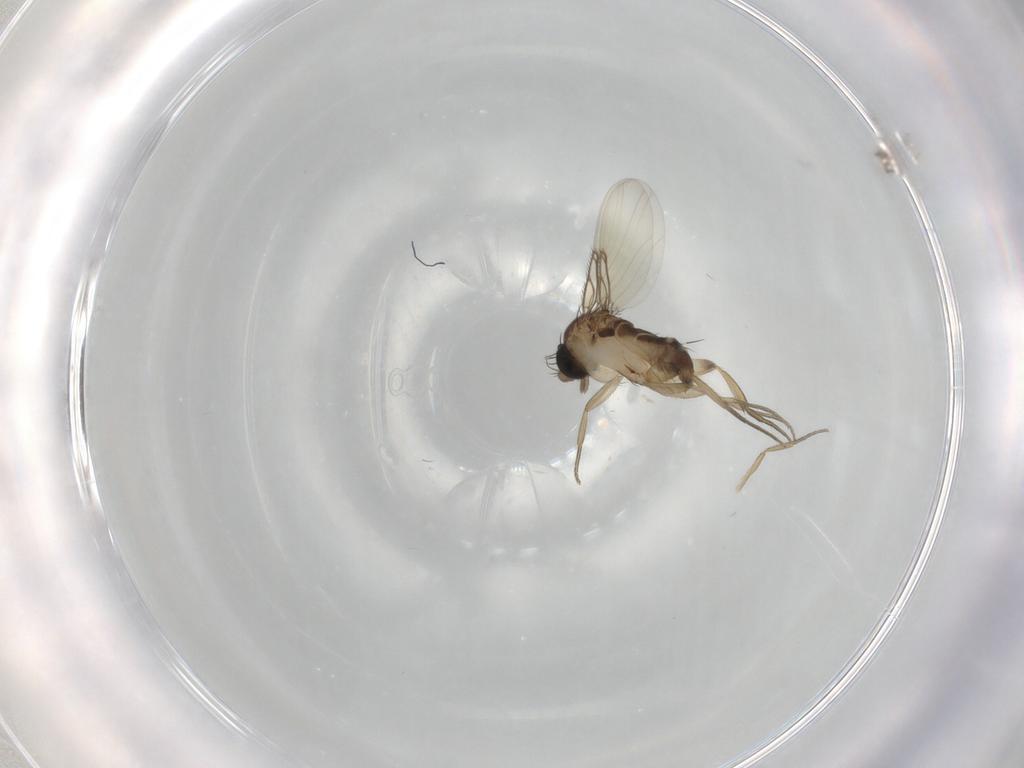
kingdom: Animalia
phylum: Arthropoda
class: Insecta
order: Diptera
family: Phoridae
